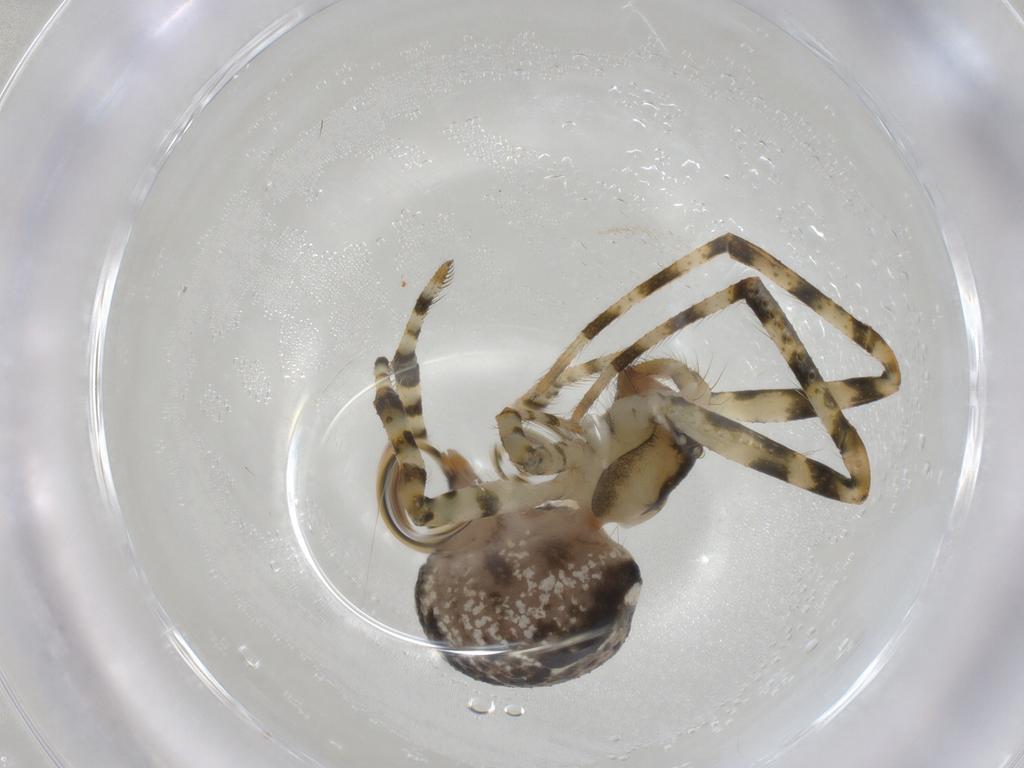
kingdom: Animalia
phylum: Arthropoda
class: Arachnida
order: Araneae
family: Theridiidae
